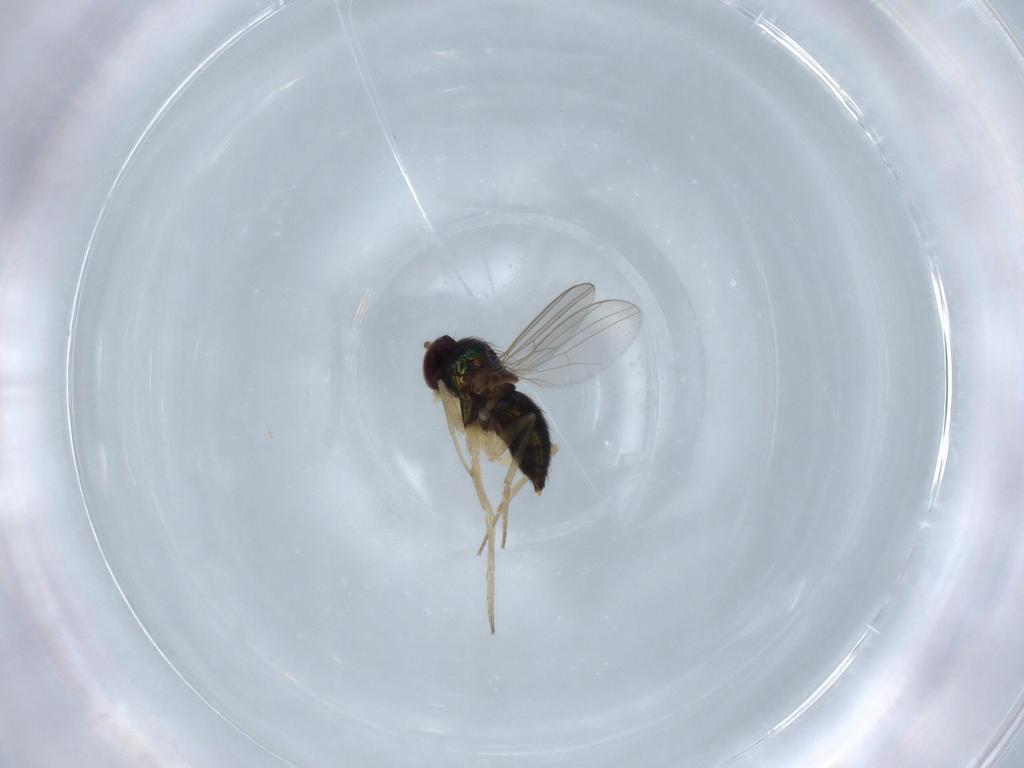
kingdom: Animalia
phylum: Arthropoda
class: Insecta
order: Diptera
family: Dolichopodidae
